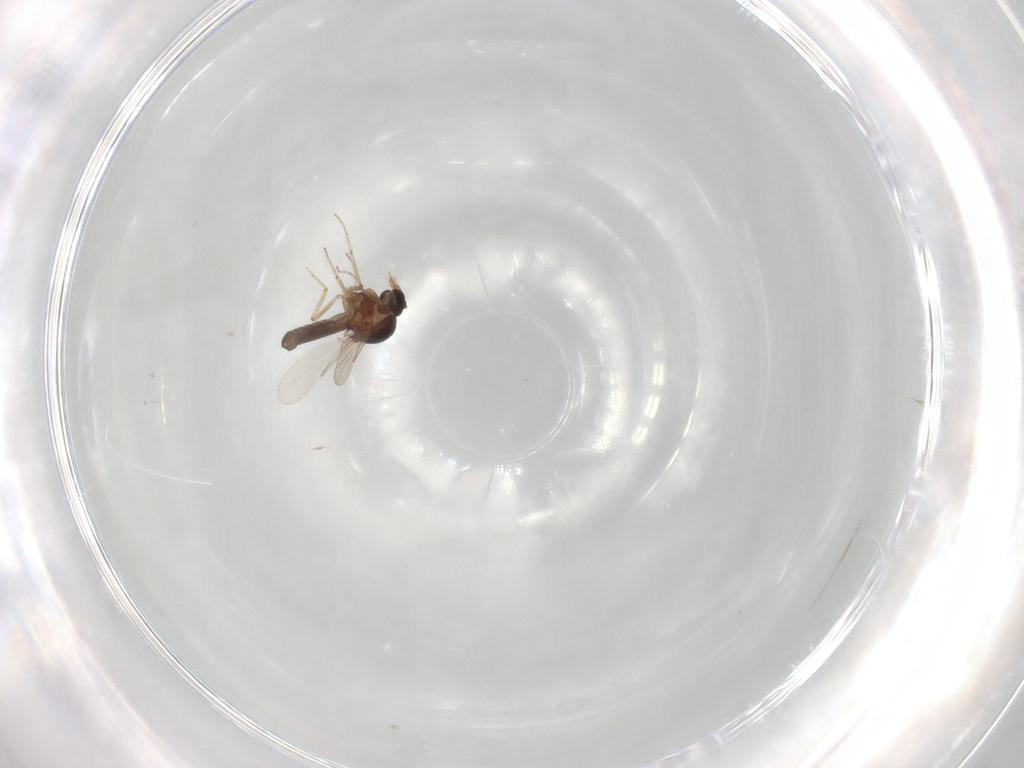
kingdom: Animalia
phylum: Arthropoda
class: Insecta
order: Diptera
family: Ceratopogonidae
